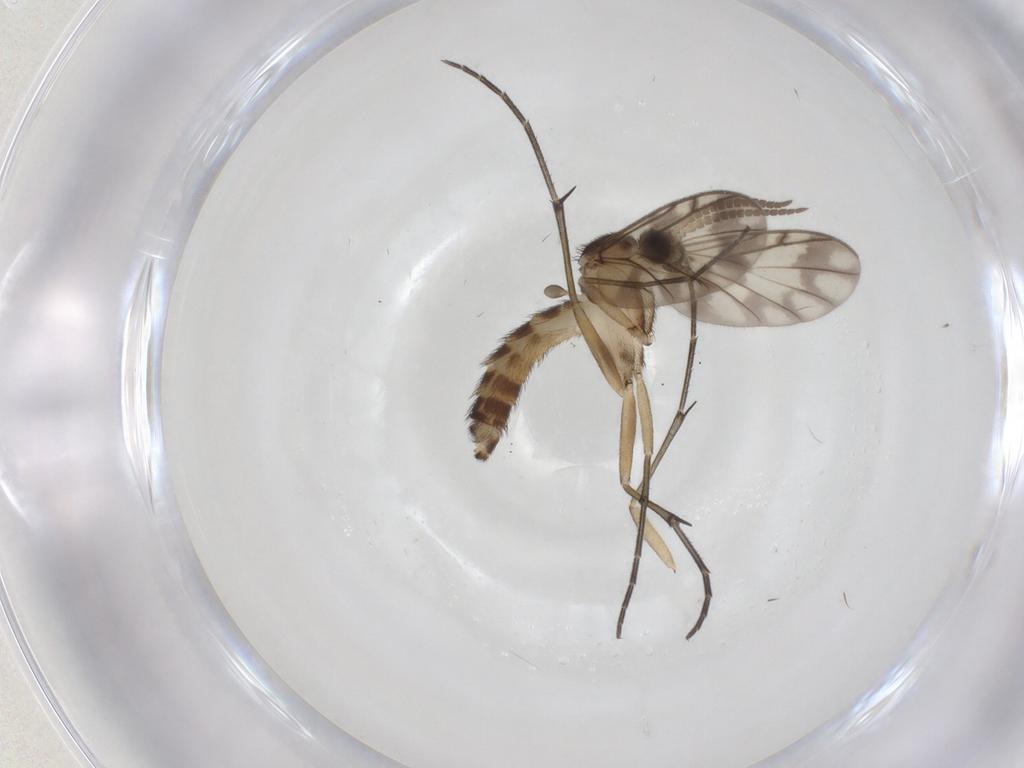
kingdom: Animalia
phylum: Arthropoda
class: Insecta
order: Diptera
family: Keroplatidae
